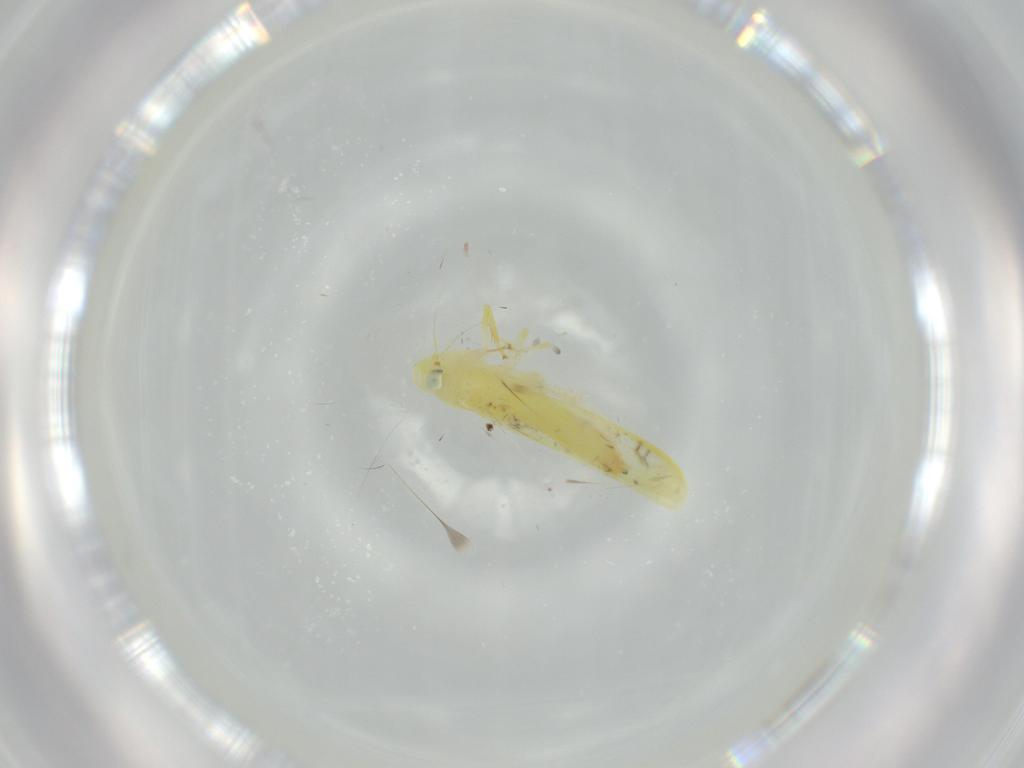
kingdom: Animalia
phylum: Arthropoda
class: Insecta
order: Hemiptera
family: Cicadellidae
